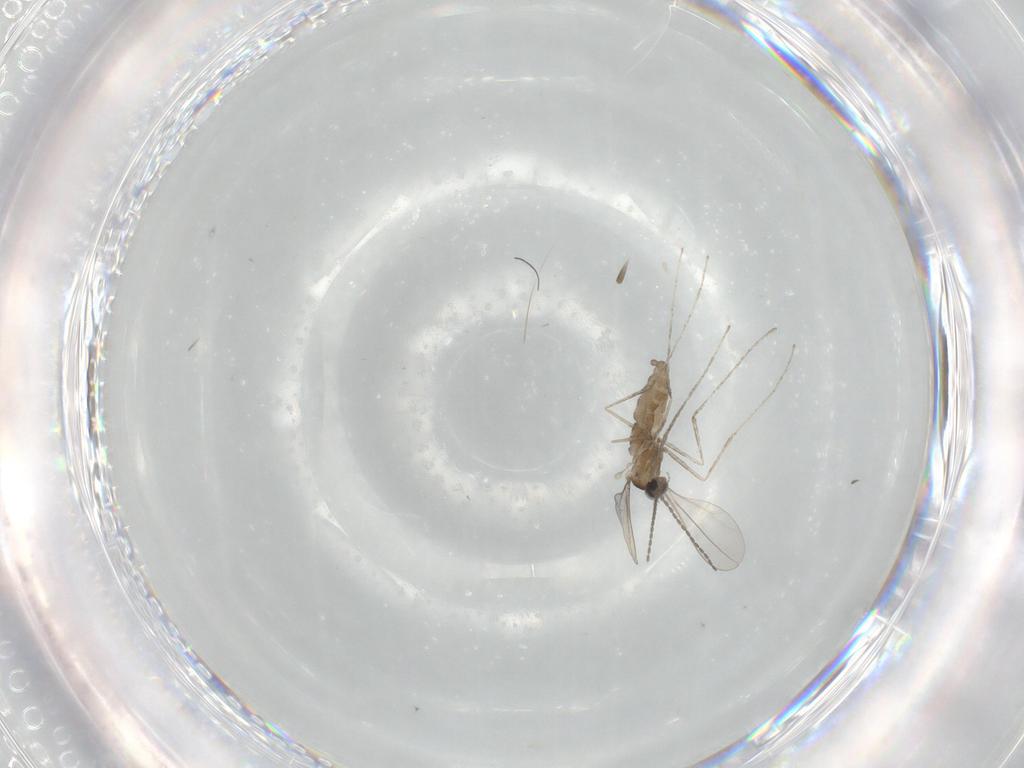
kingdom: Animalia
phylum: Arthropoda
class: Insecta
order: Diptera
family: Cecidomyiidae
